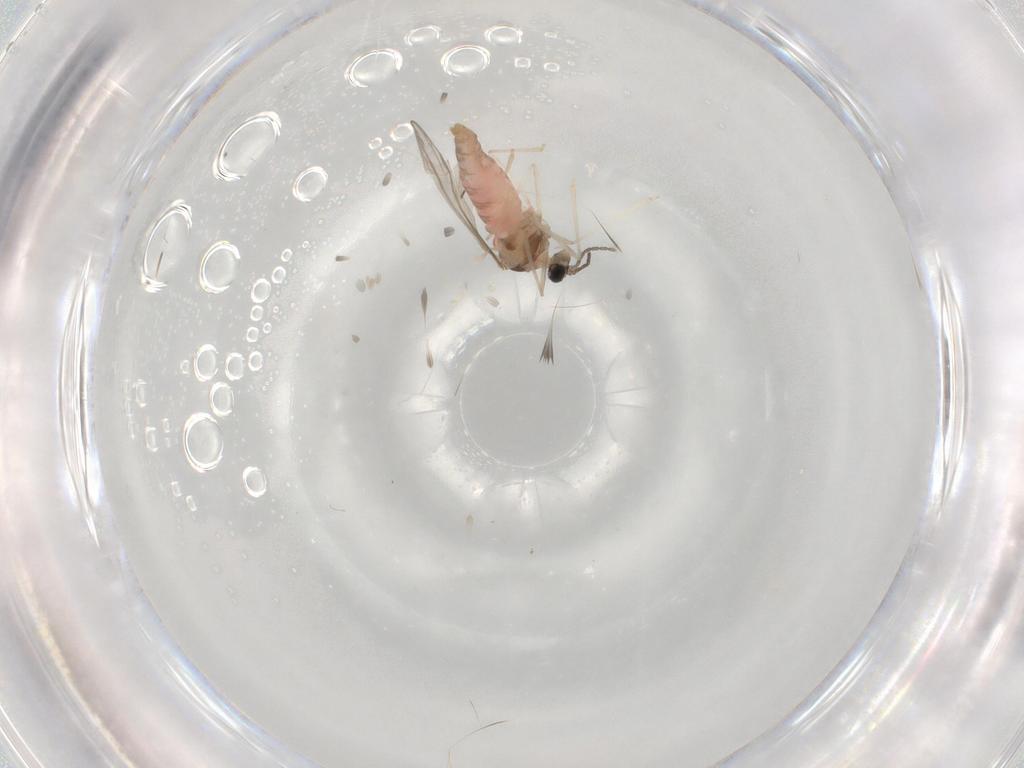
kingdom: Animalia
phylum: Arthropoda
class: Insecta
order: Diptera
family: Cecidomyiidae
